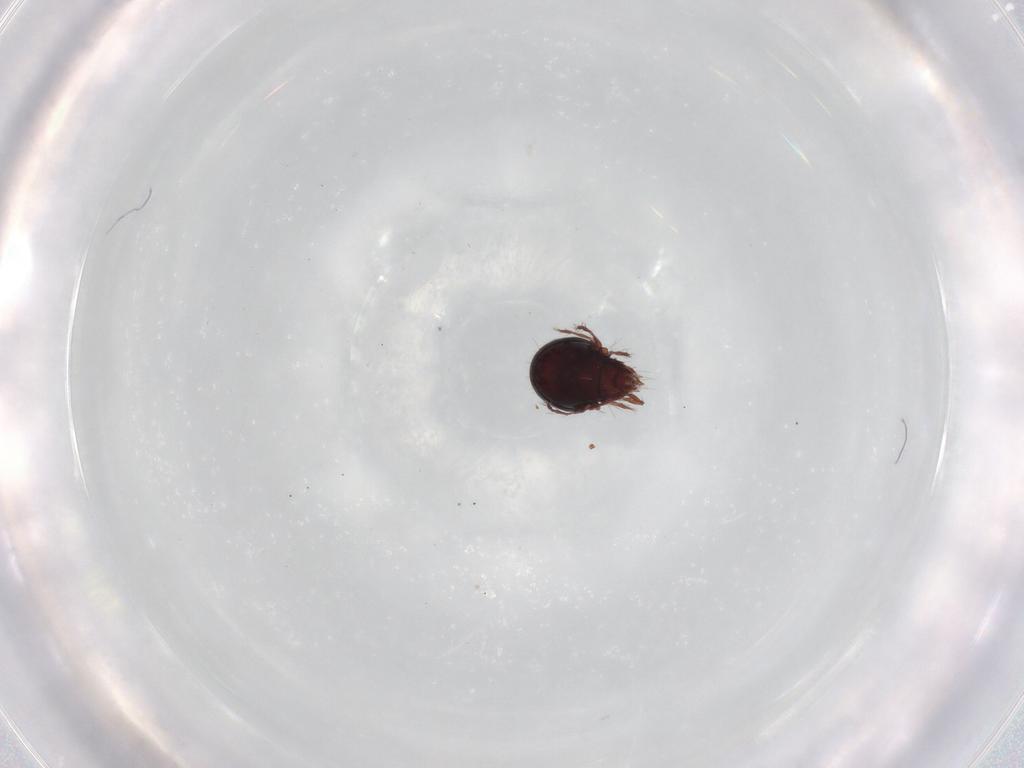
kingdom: Animalia
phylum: Arthropoda
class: Arachnida
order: Sarcoptiformes
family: Ceratoppiidae
